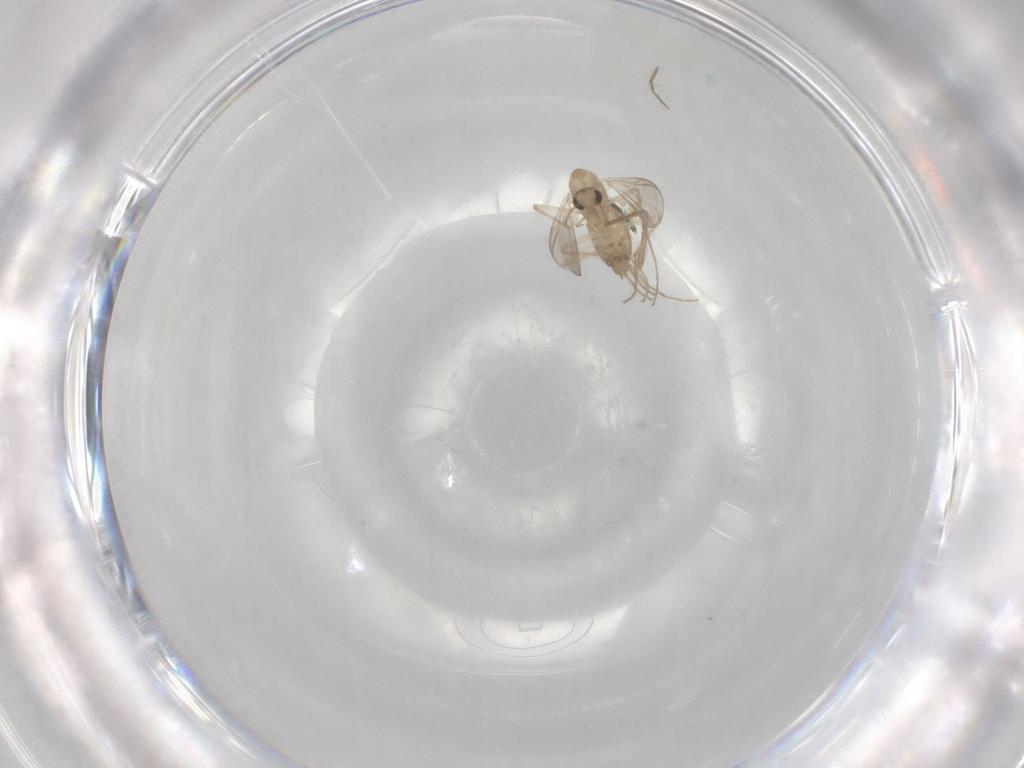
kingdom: Animalia
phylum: Arthropoda
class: Insecta
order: Diptera
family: Chironomidae
